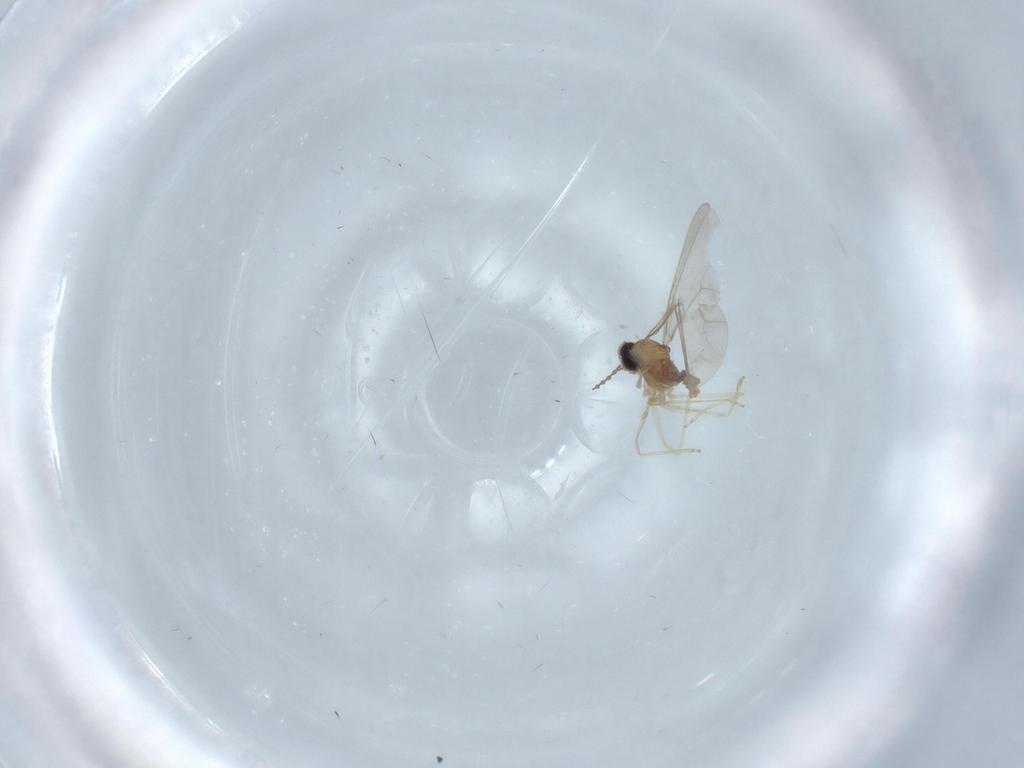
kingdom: Animalia
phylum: Arthropoda
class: Insecta
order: Diptera
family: Cecidomyiidae
